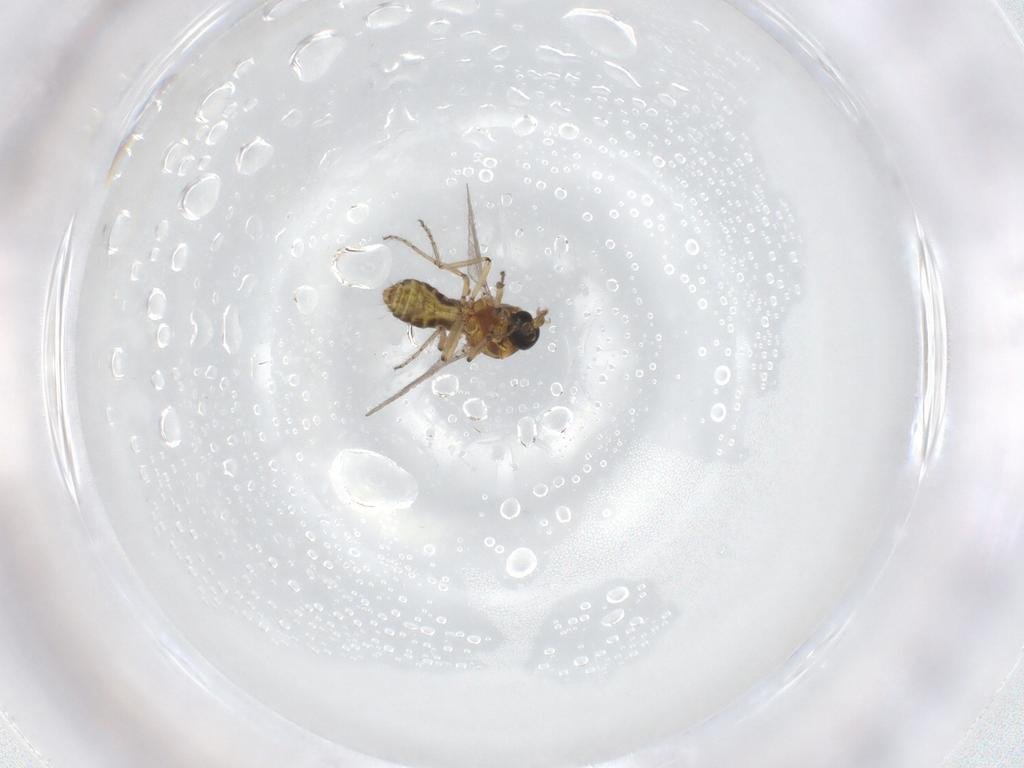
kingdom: Animalia
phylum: Arthropoda
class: Insecta
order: Diptera
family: Ceratopogonidae
